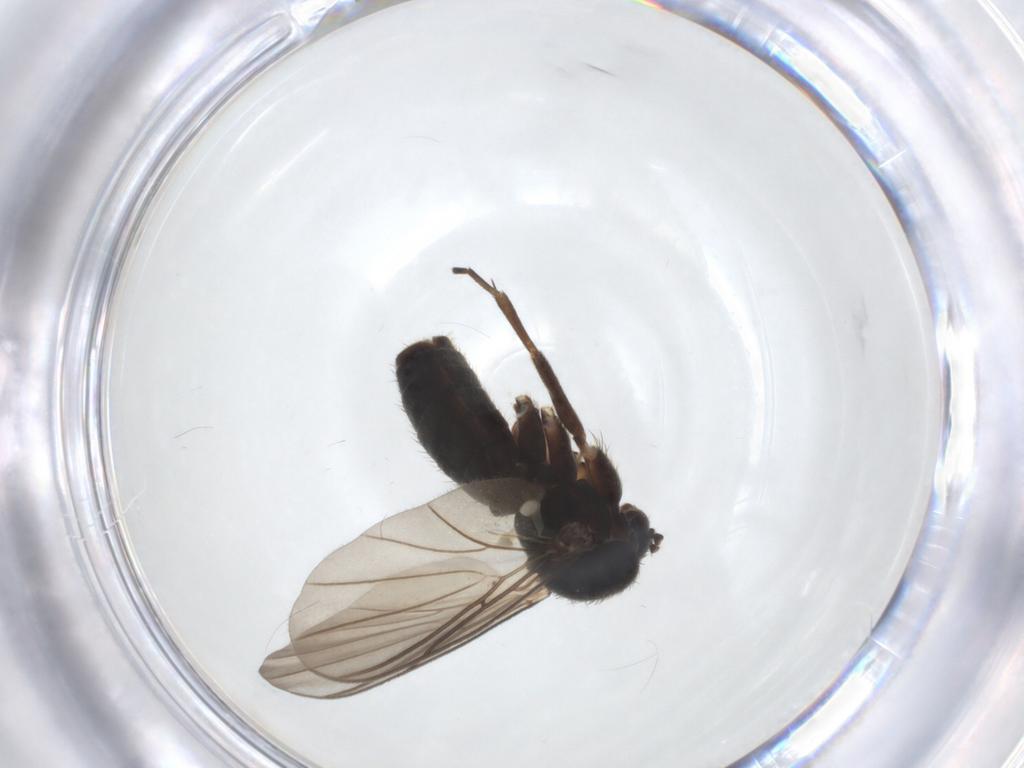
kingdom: Animalia
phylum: Arthropoda
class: Insecta
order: Diptera
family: Mycetophilidae
